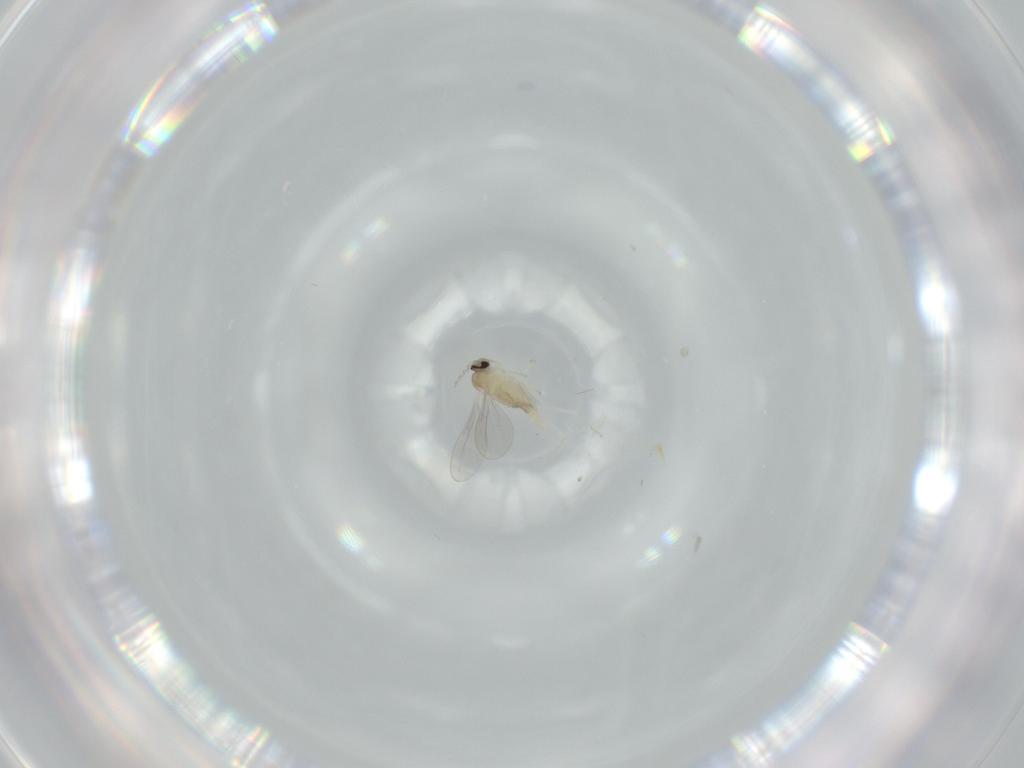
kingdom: Animalia
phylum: Arthropoda
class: Insecta
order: Diptera
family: Cecidomyiidae
